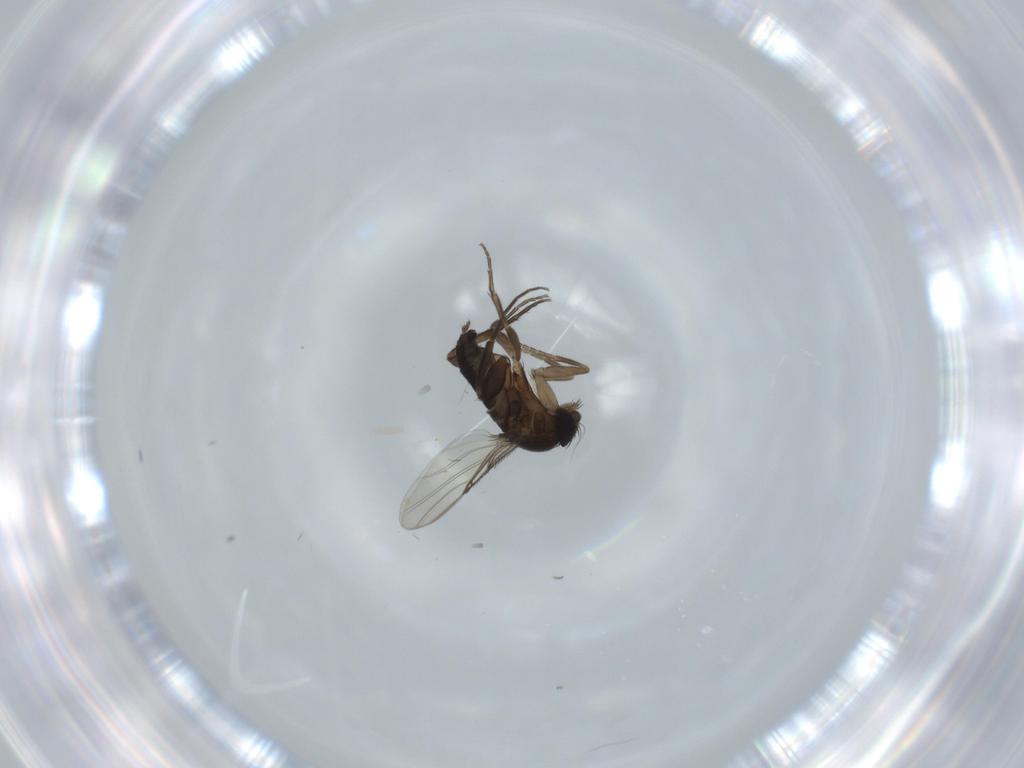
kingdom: Animalia
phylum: Arthropoda
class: Insecta
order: Diptera
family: Phoridae
